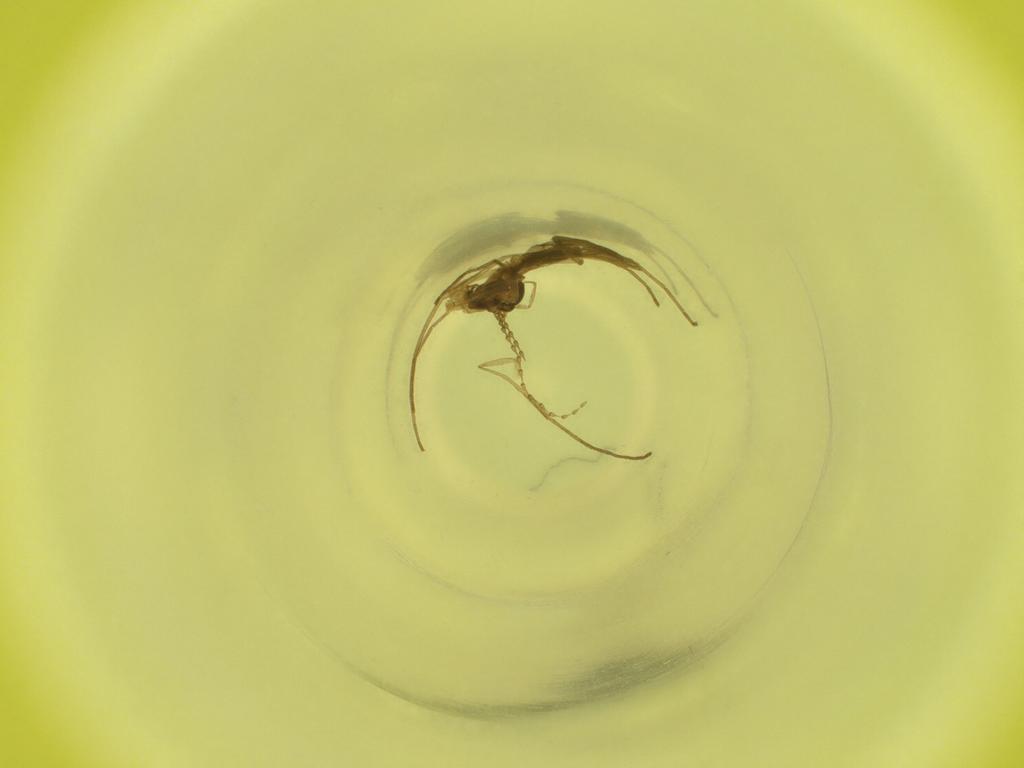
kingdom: Animalia
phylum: Arthropoda
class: Insecta
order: Diptera
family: Cecidomyiidae
